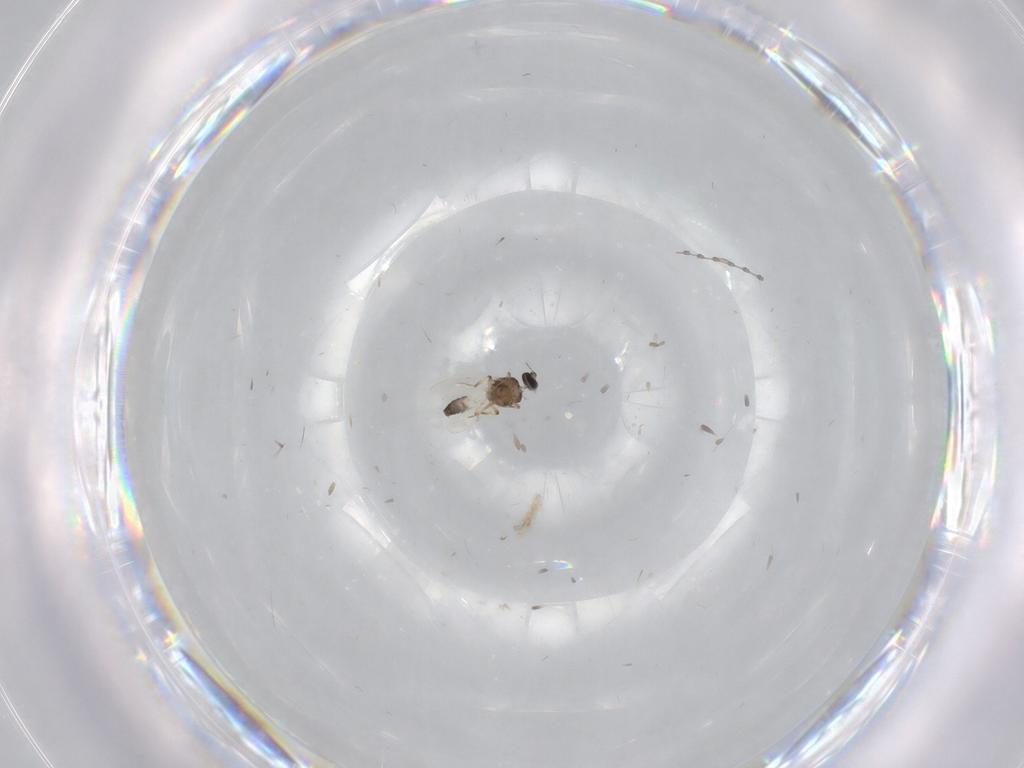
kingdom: Animalia
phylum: Arthropoda
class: Insecta
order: Diptera
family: Ceratopogonidae
